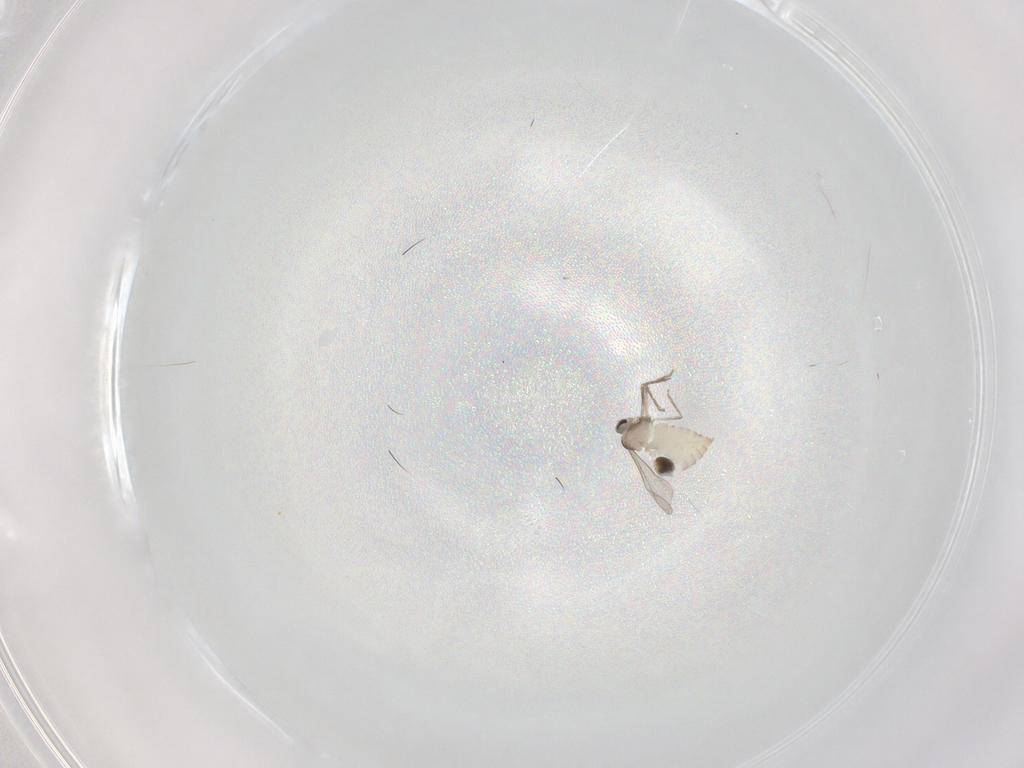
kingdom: Animalia
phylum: Arthropoda
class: Insecta
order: Diptera
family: Cecidomyiidae
